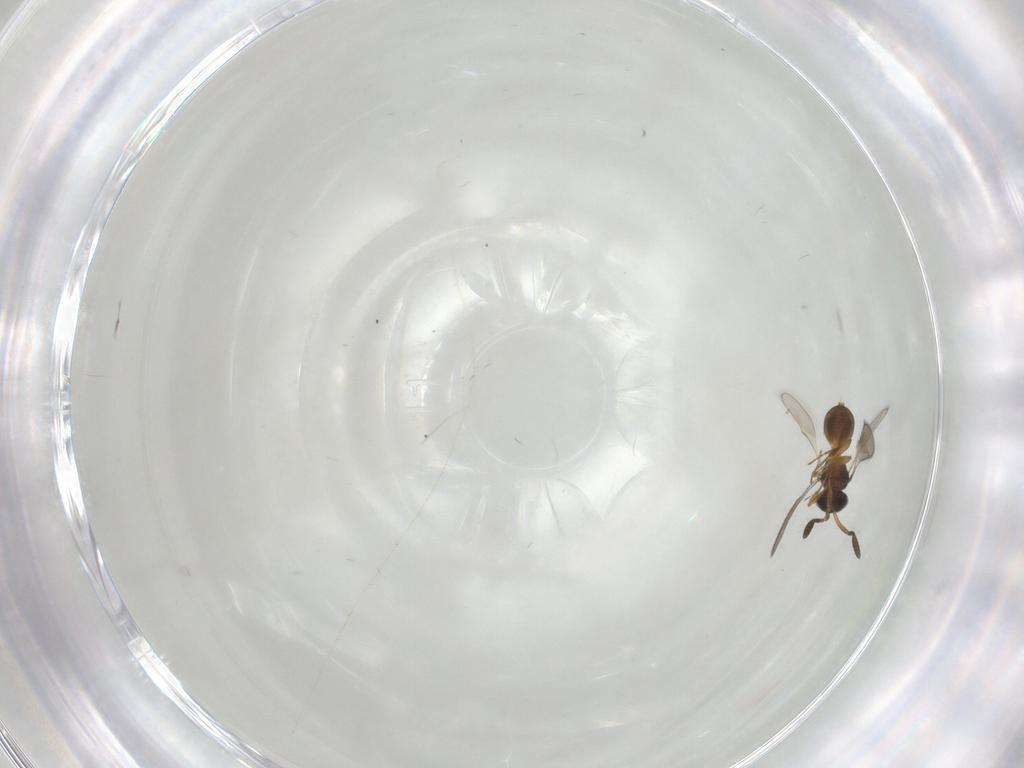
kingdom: Animalia
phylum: Arthropoda
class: Insecta
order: Hymenoptera
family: Scelionidae
